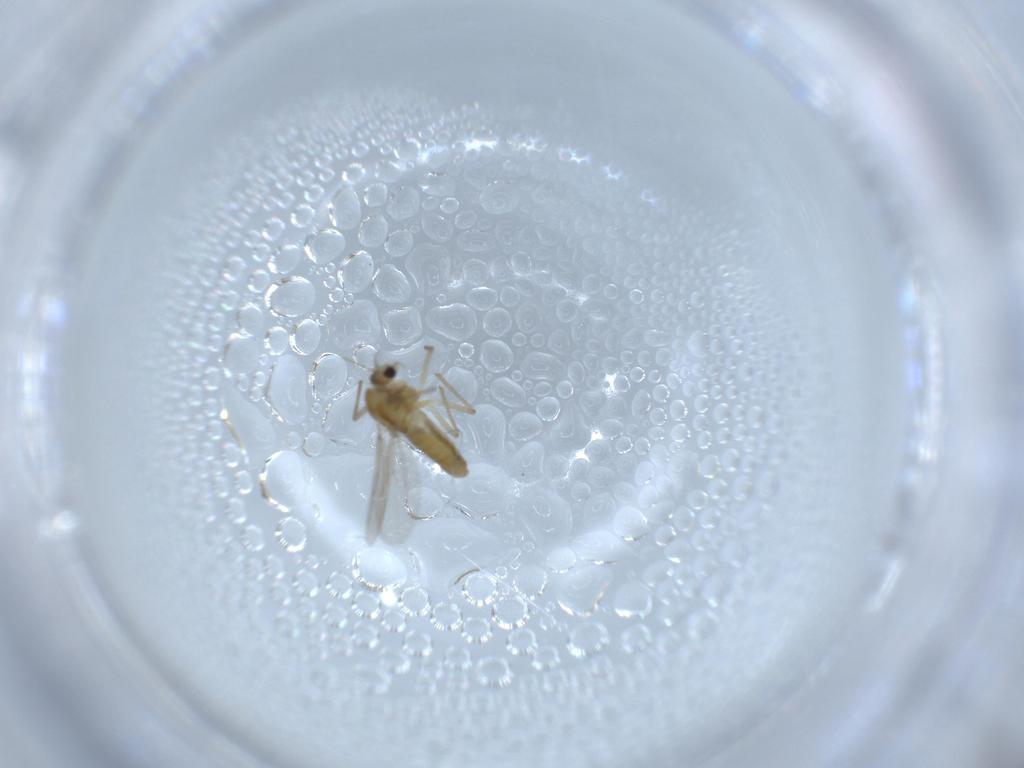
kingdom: Animalia
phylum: Arthropoda
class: Insecta
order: Diptera
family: Chironomidae
